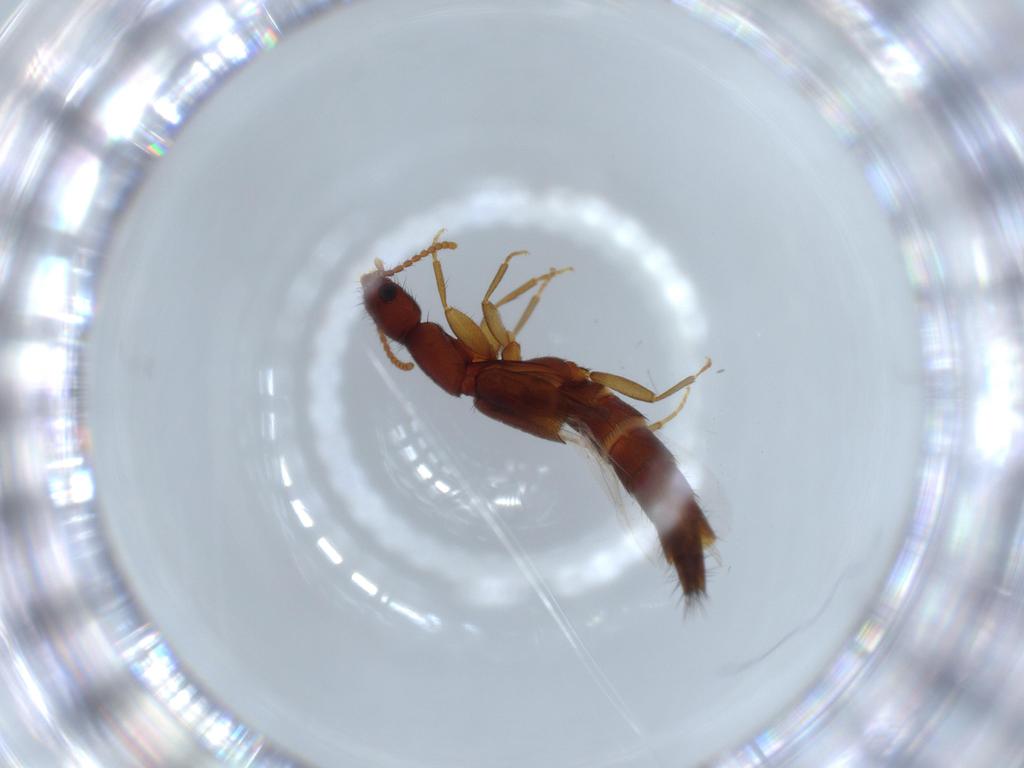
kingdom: Animalia
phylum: Arthropoda
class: Insecta
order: Coleoptera
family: Staphylinidae
